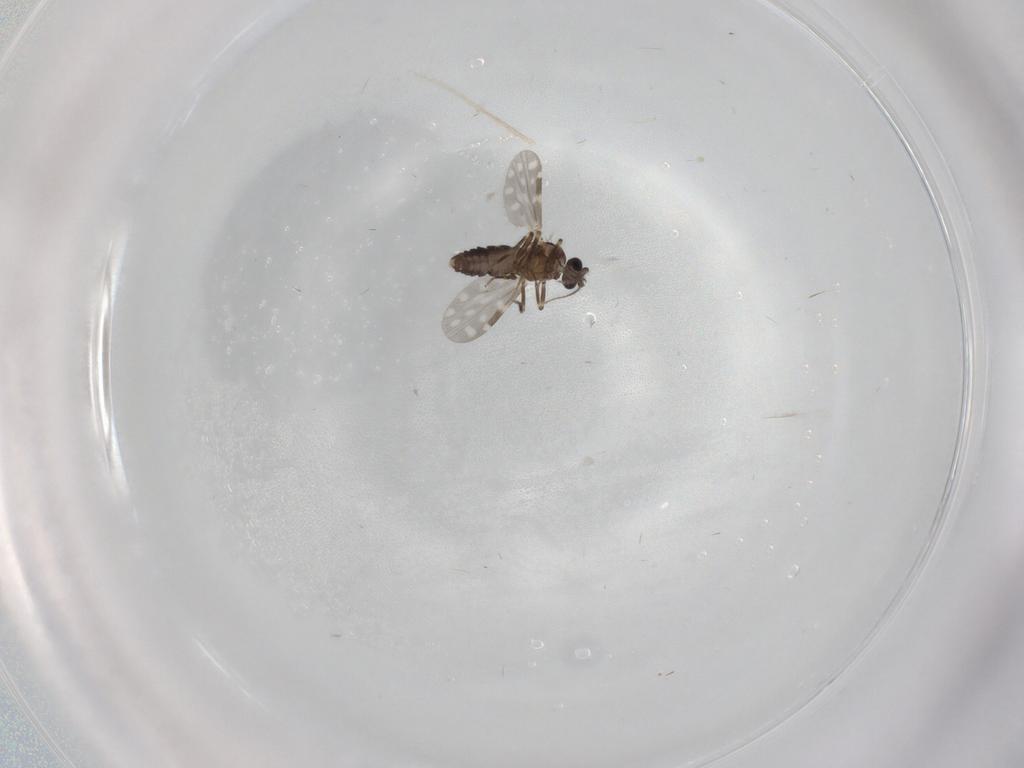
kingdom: Animalia
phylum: Arthropoda
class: Insecta
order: Diptera
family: Ceratopogonidae
